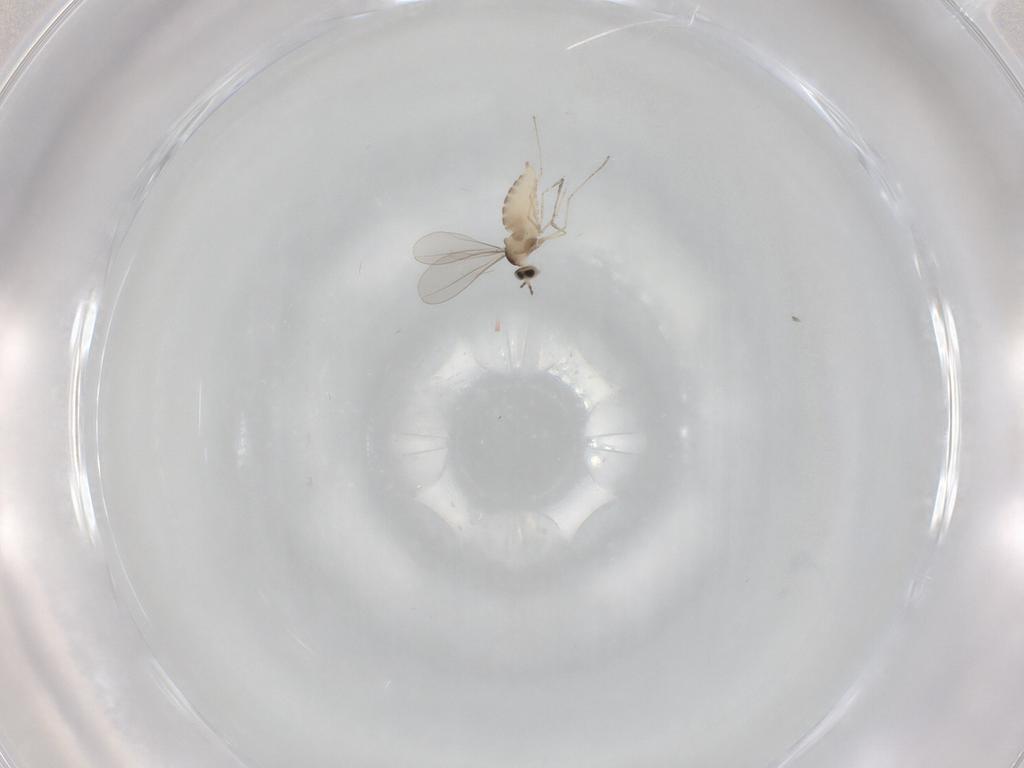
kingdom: Animalia
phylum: Arthropoda
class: Insecta
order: Diptera
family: Cecidomyiidae
